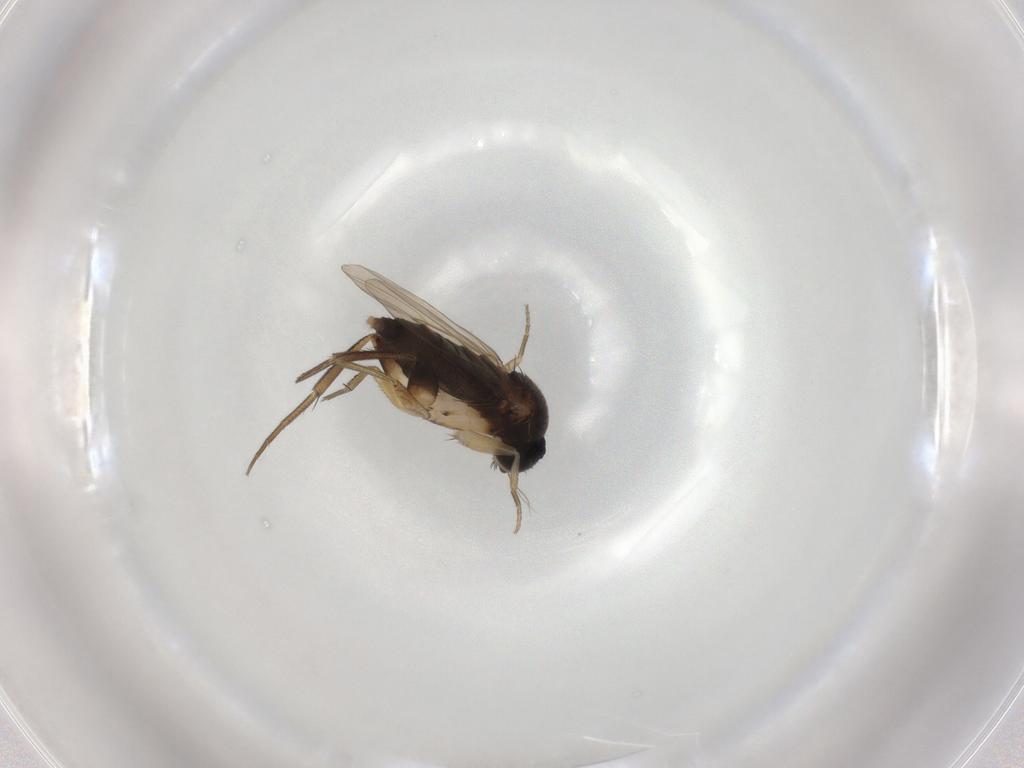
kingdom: Animalia
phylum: Arthropoda
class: Insecta
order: Diptera
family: Phoridae
